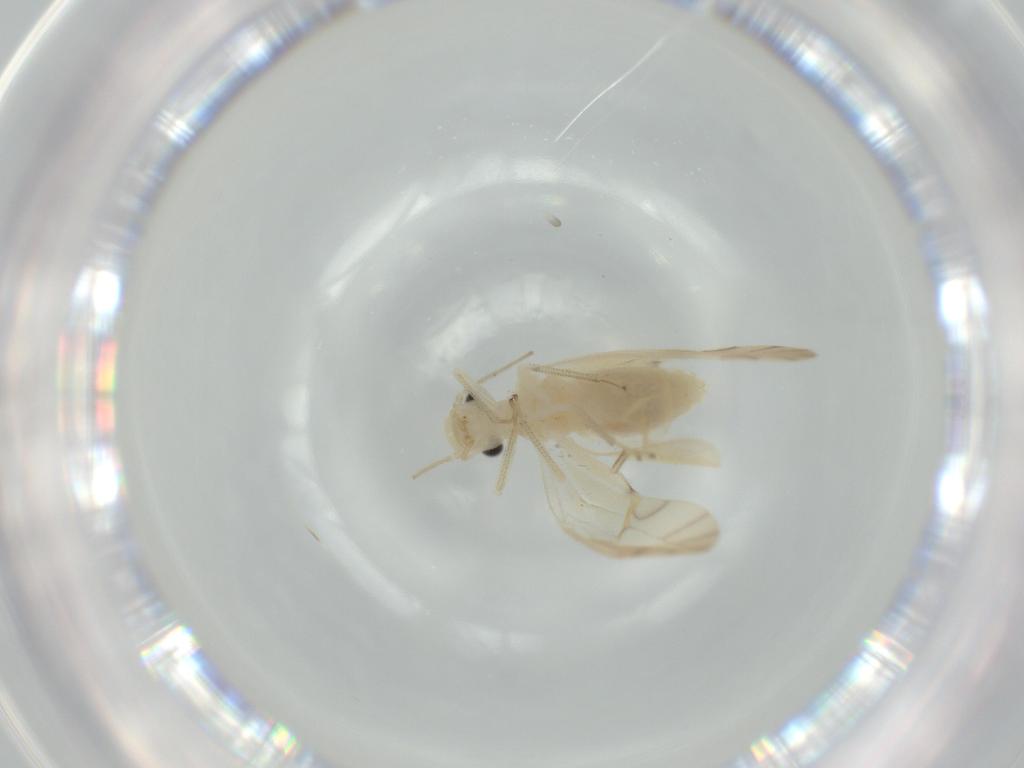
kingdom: Animalia
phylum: Arthropoda
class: Insecta
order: Psocodea
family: Caeciliusidae
